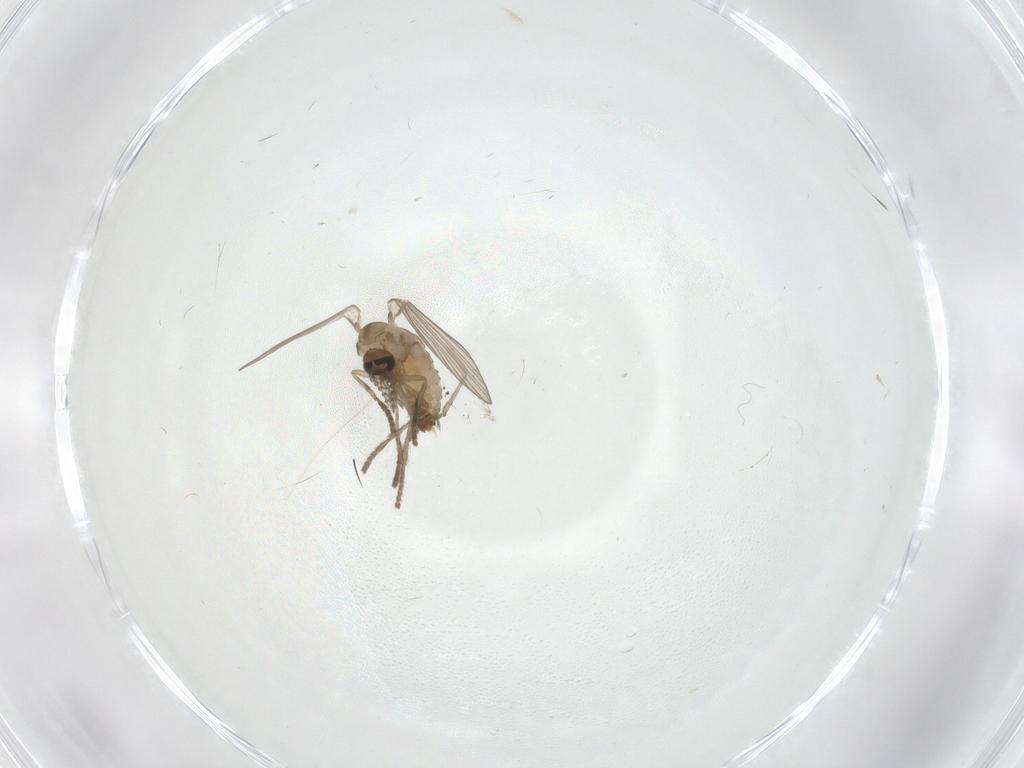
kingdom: Animalia
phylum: Arthropoda
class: Insecta
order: Diptera
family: Psychodidae
